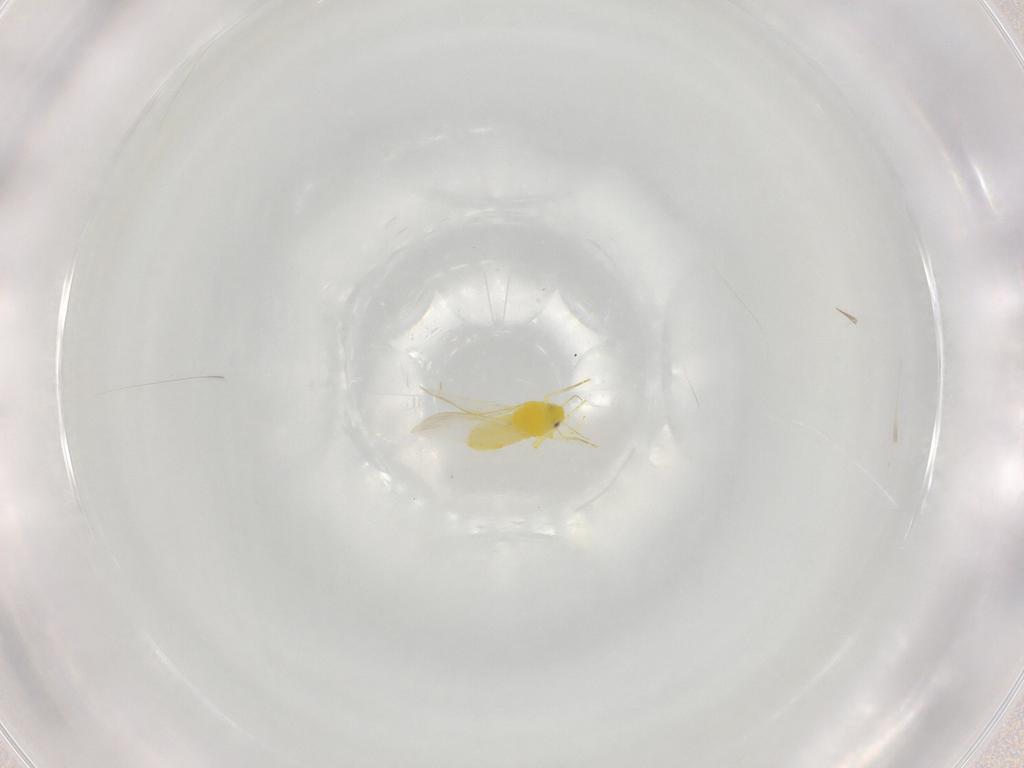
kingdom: Animalia
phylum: Arthropoda
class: Insecta
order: Hemiptera
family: Aleyrodidae
